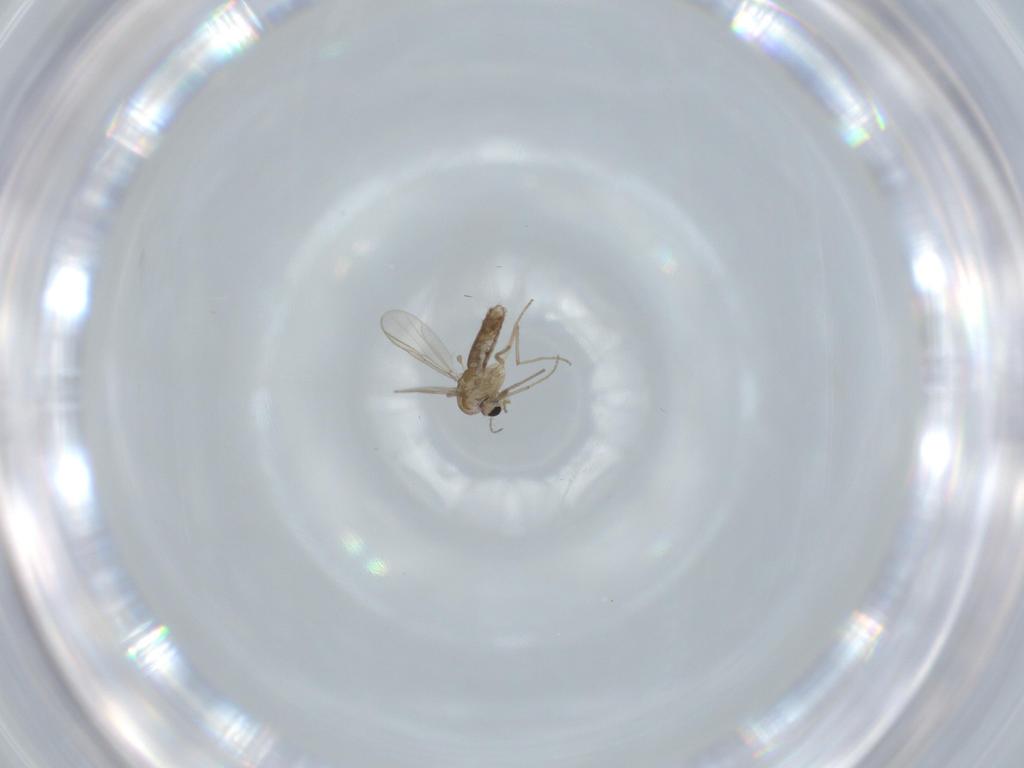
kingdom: Animalia
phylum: Arthropoda
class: Insecta
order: Diptera
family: Chironomidae
